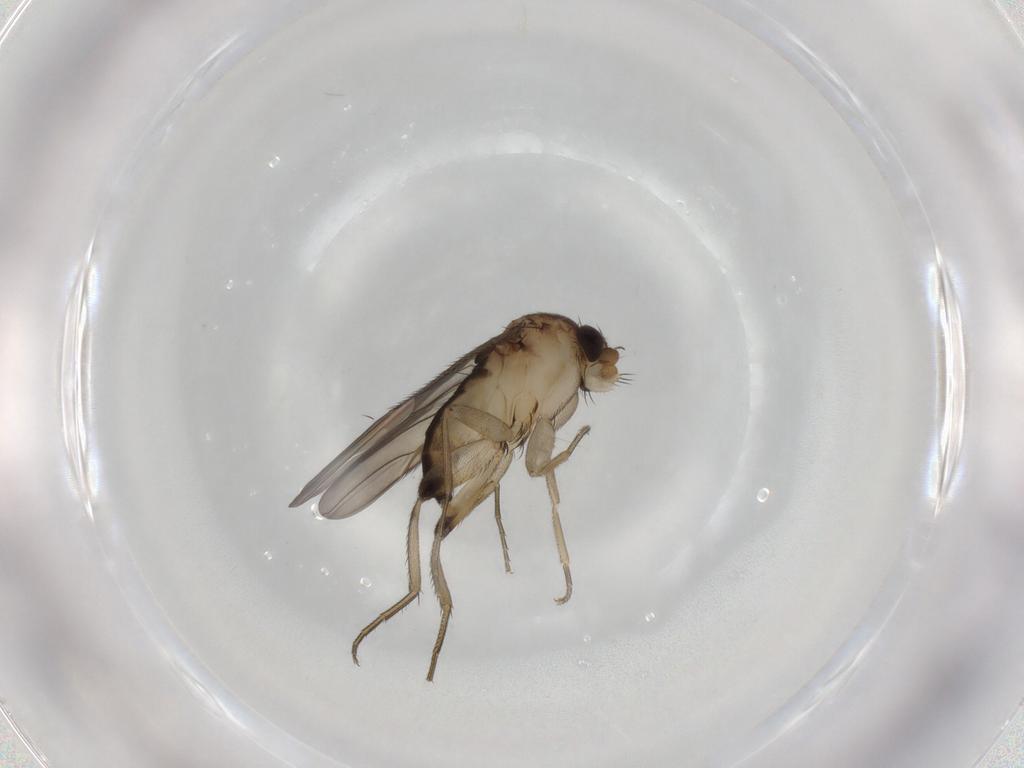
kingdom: Animalia
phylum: Arthropoda
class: Insecta
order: Diptera
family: Phoridae
